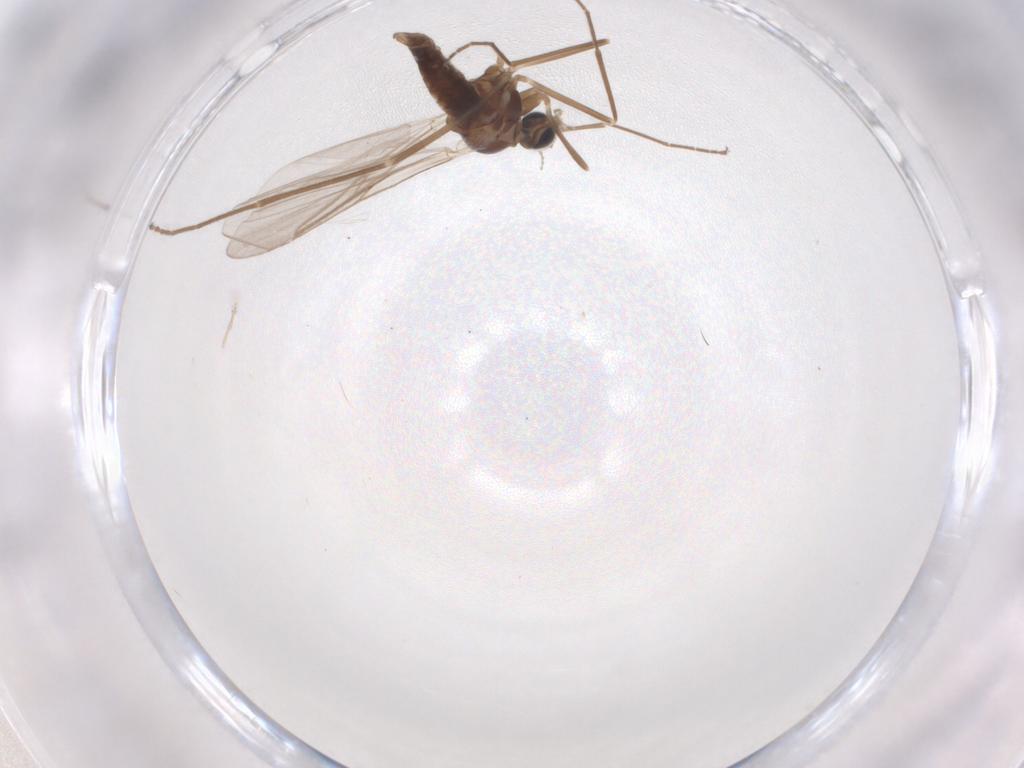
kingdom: Animalia
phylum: Arthropoda
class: Insecta
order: Diptera
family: Cecidomyiidae
